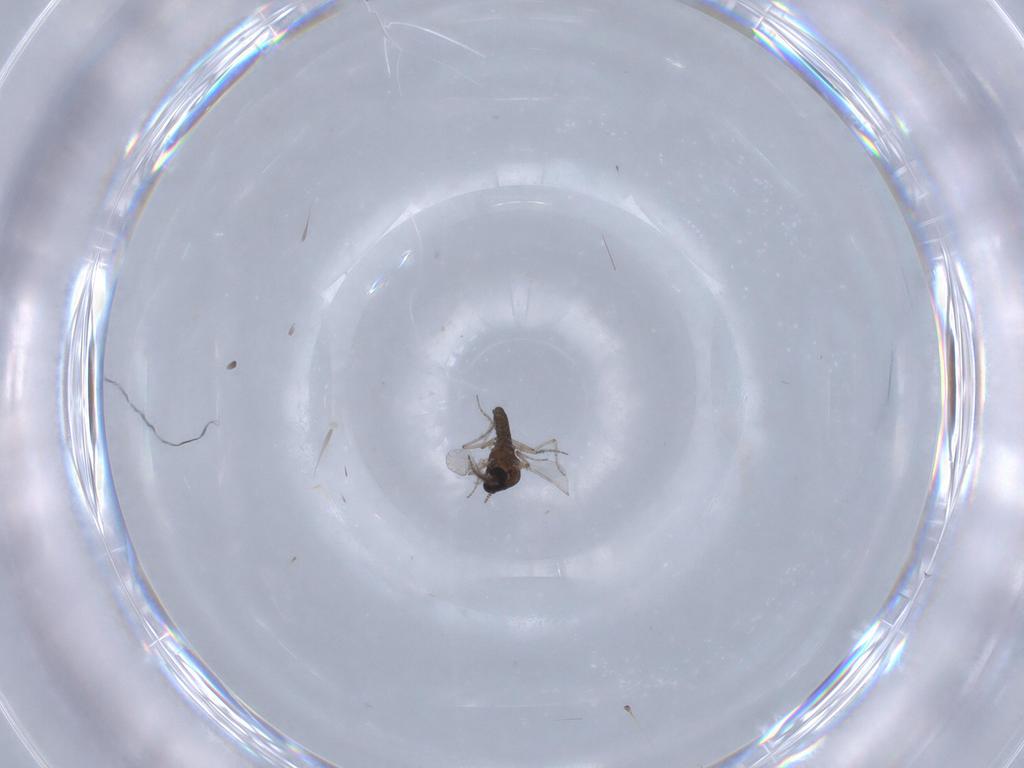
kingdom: Animalia
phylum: Arthropoda
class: Insecta
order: Diptera
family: Ceratopogonidae
